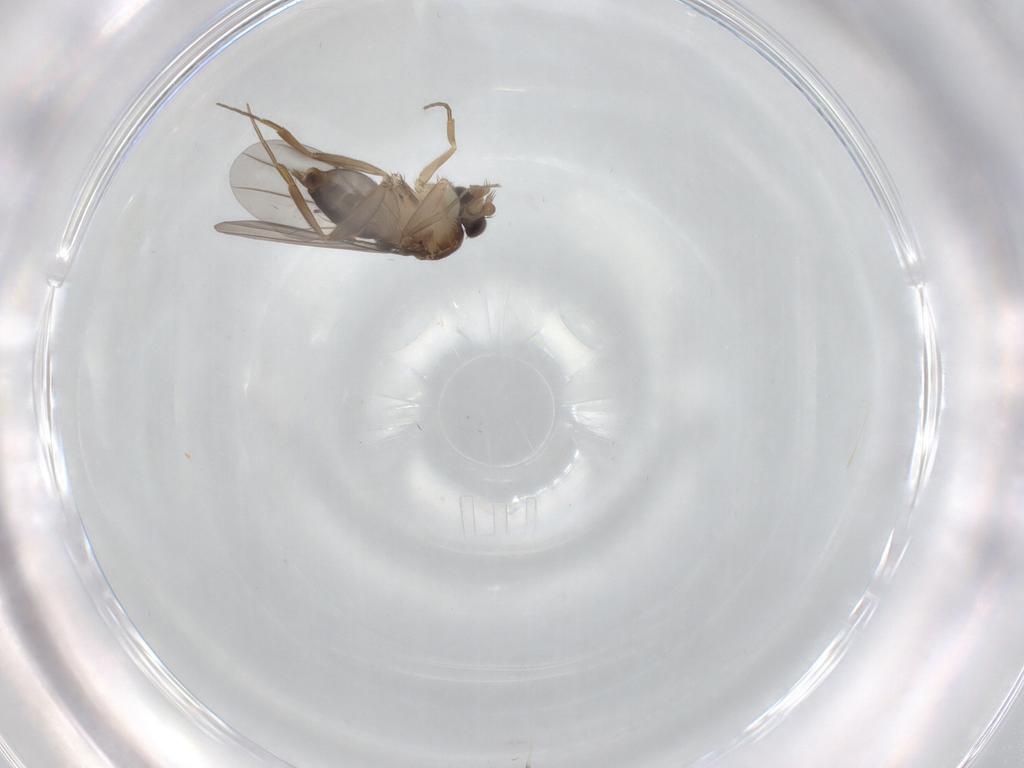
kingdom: Animalia
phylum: Arthropoda
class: Insecta
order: Diptera
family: Phoridae
